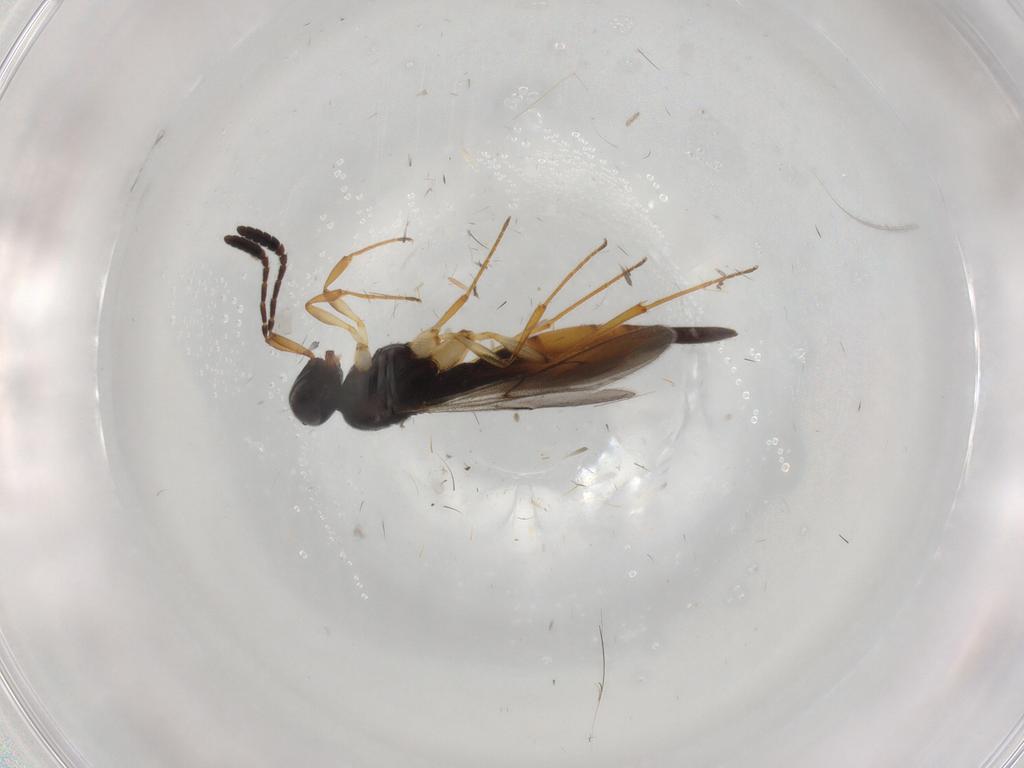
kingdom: Animalia
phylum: Arthropoda
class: Insecta
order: Hymenoptera
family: Scelionidae
